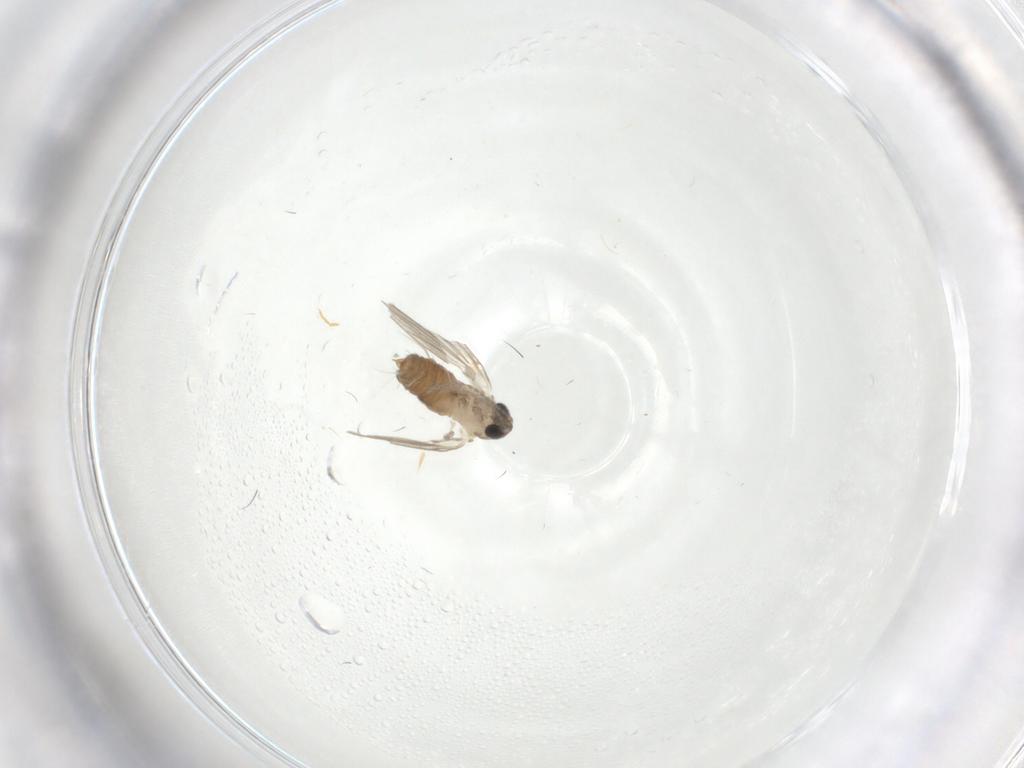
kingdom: Animalia
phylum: Arthropoda
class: Insecta
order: Diptera
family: Psychodidae
